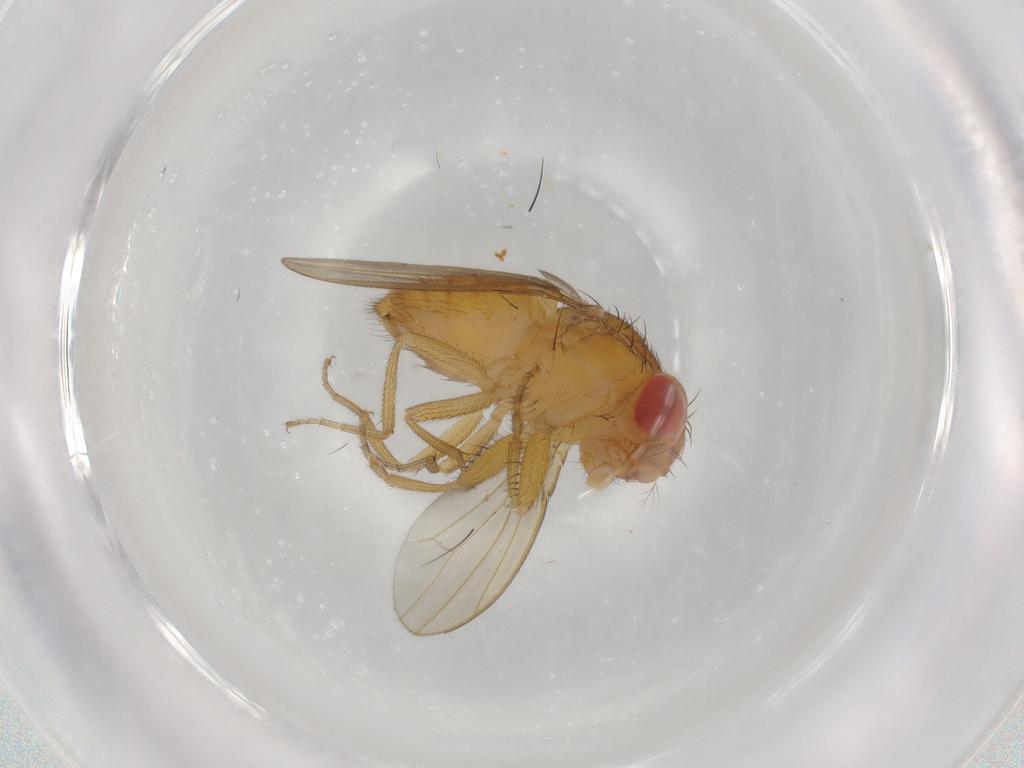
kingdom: Animalia
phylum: Arthropoda
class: Insecta
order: Diptera
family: Drosophilidae
